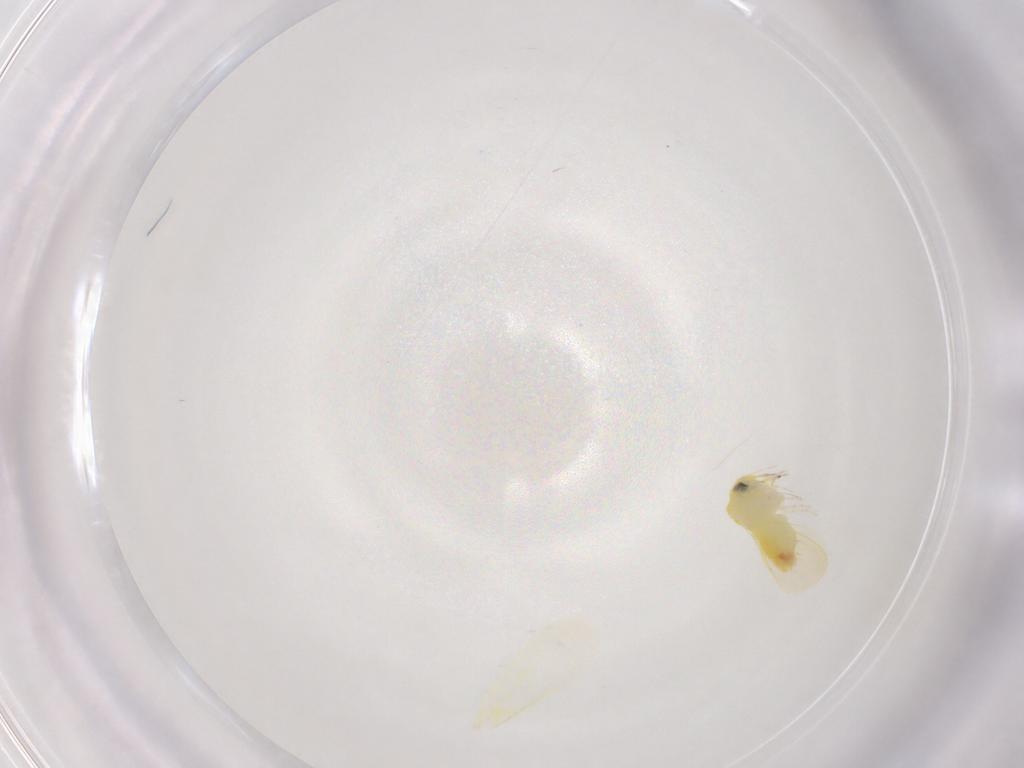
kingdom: Animalia
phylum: Arthropoda
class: Insecta
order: Hemiptera
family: Aleyrodidae
